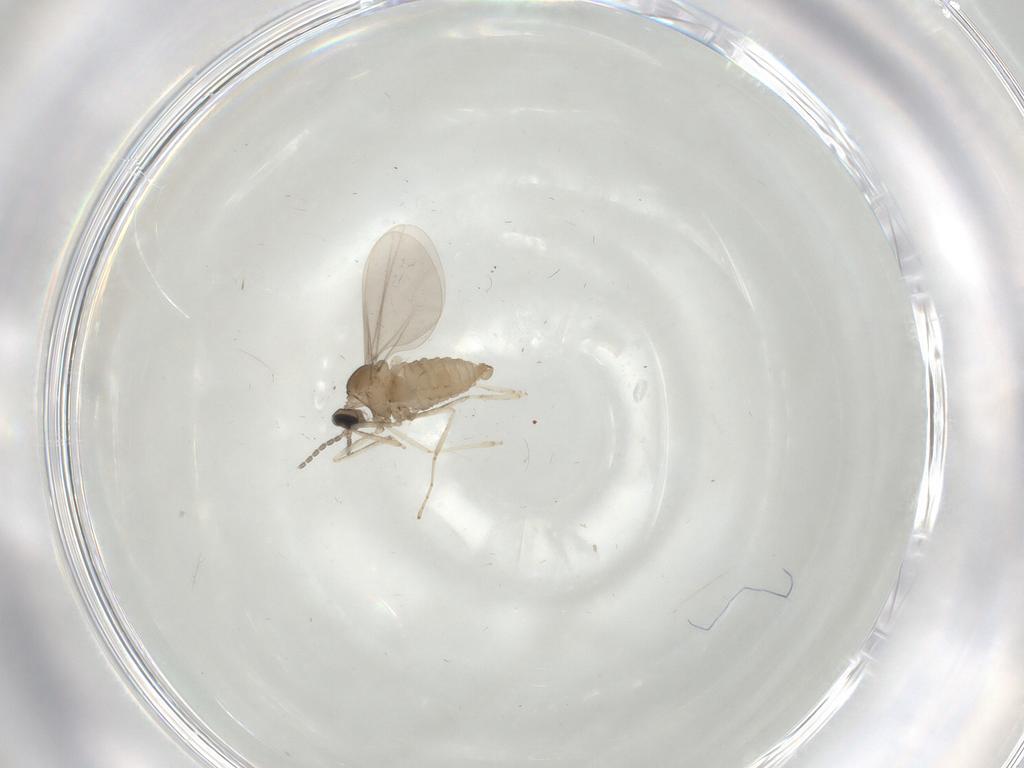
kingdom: Animalia
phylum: Arthropoda
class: Insecta
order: Diptera
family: Cecidomyiidae
